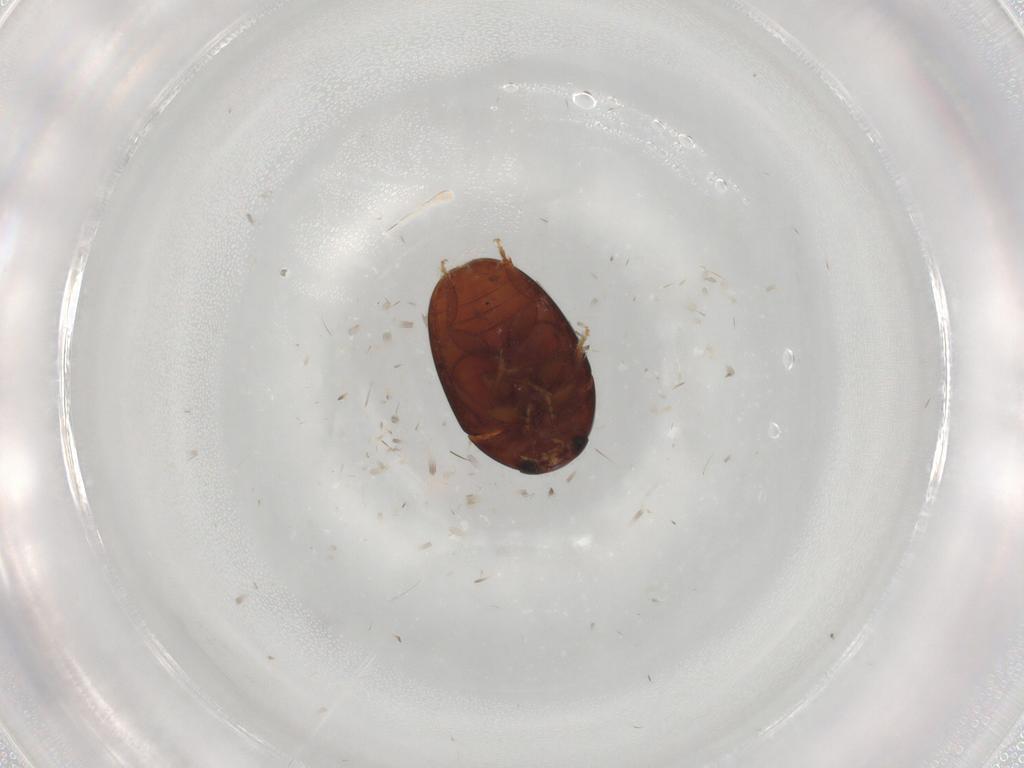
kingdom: Animalia
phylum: Arthropoda
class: Insecta
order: Coleoptera
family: Phalacridae
